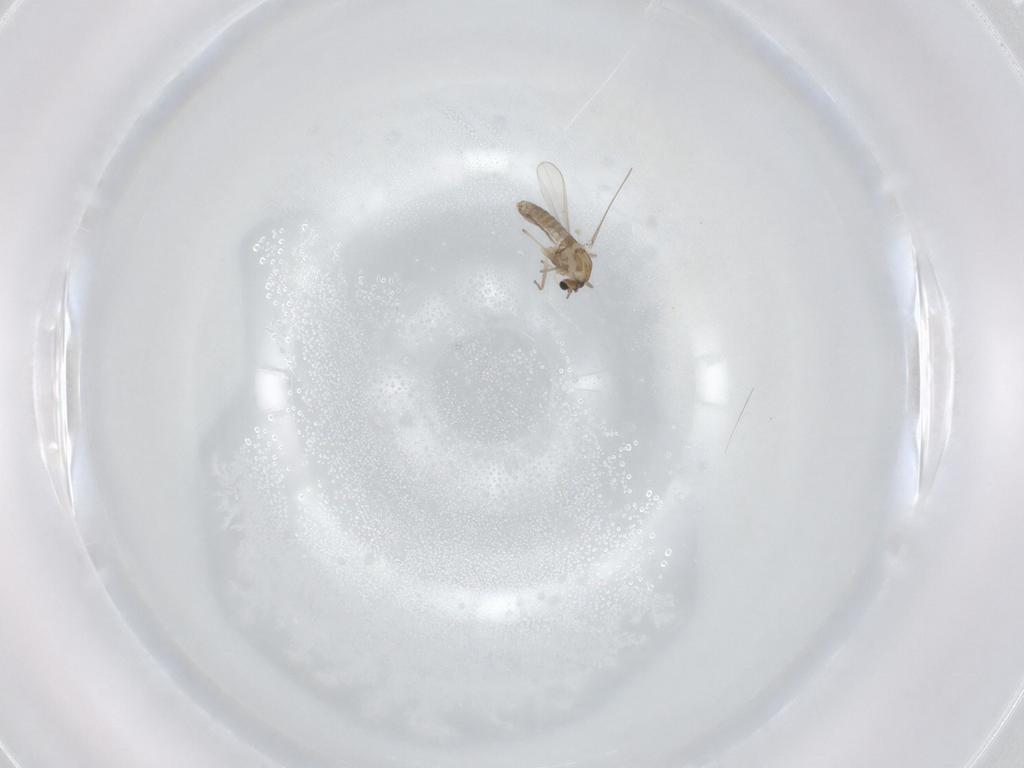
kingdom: Animalia
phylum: Arthropoda
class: Insecta
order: Diptera
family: Chironomidae
